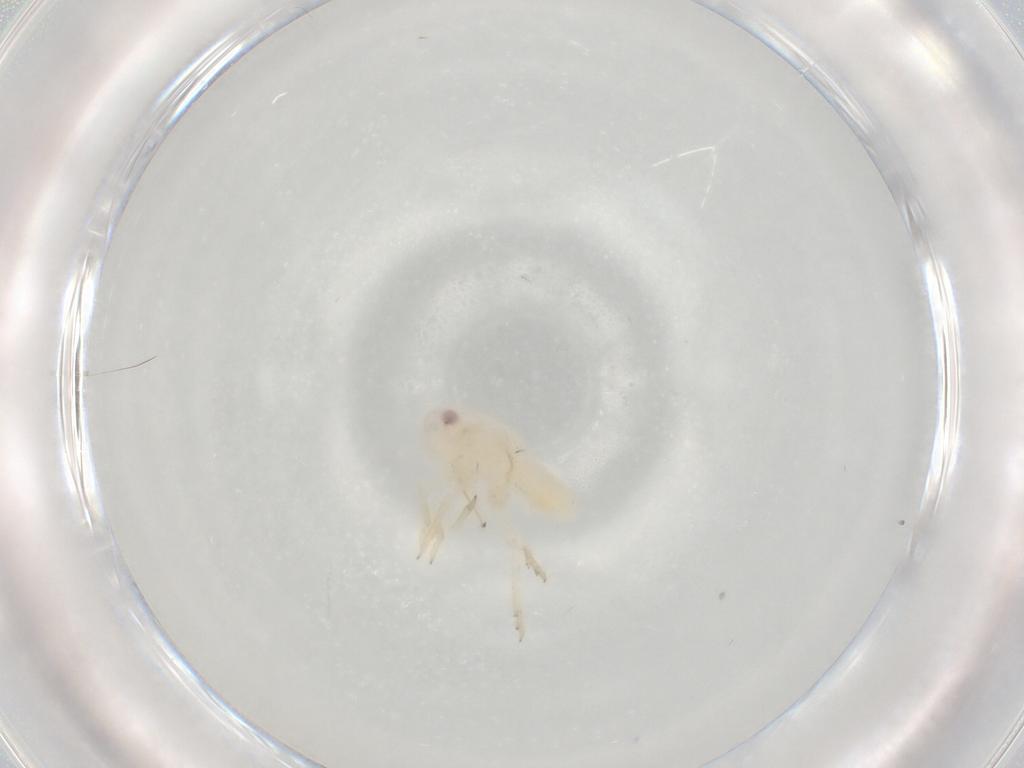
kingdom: Animalia
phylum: Arthropoda
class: Insecta
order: Hemiptera
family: Tropiduchidae
